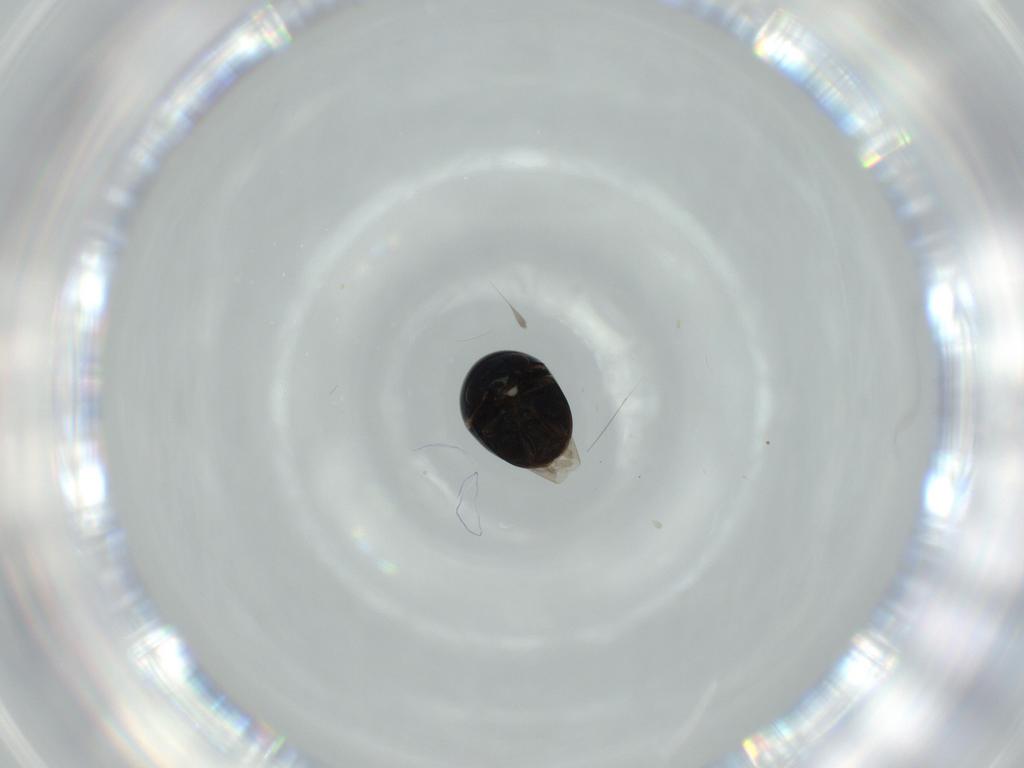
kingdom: Animalia
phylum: Arthropoda
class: Insecta
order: Coleoptera
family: Cybocephalidae
